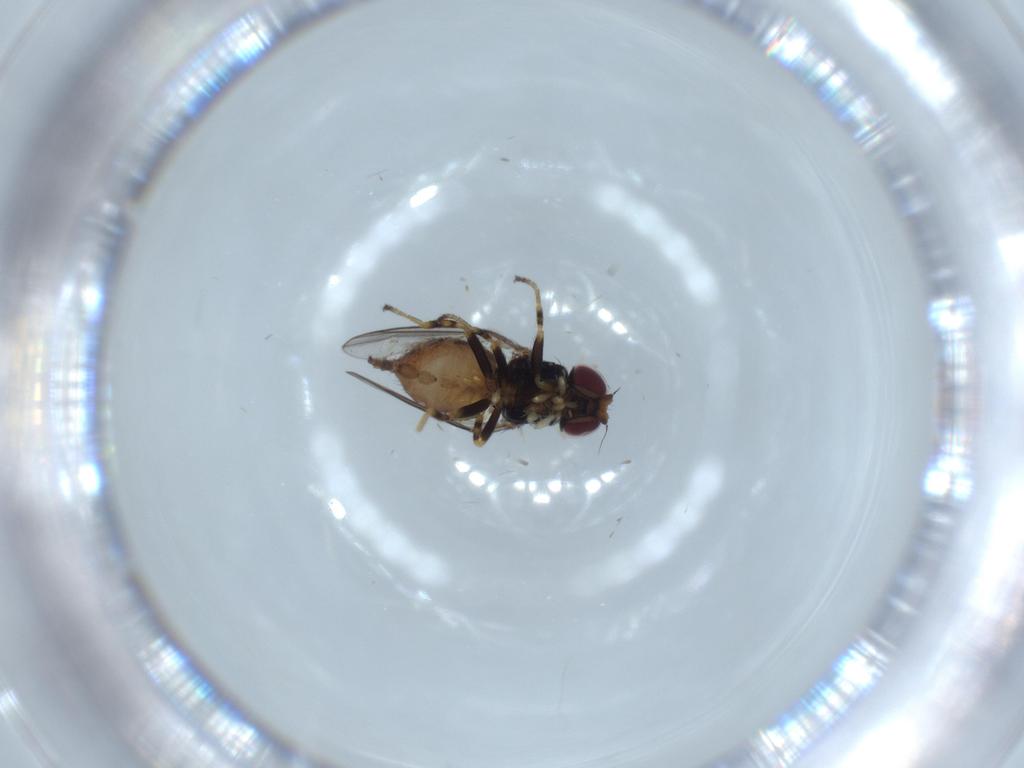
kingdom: Animalia
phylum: Arthropoda
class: Insecta
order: Diptera
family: Chloropidae
